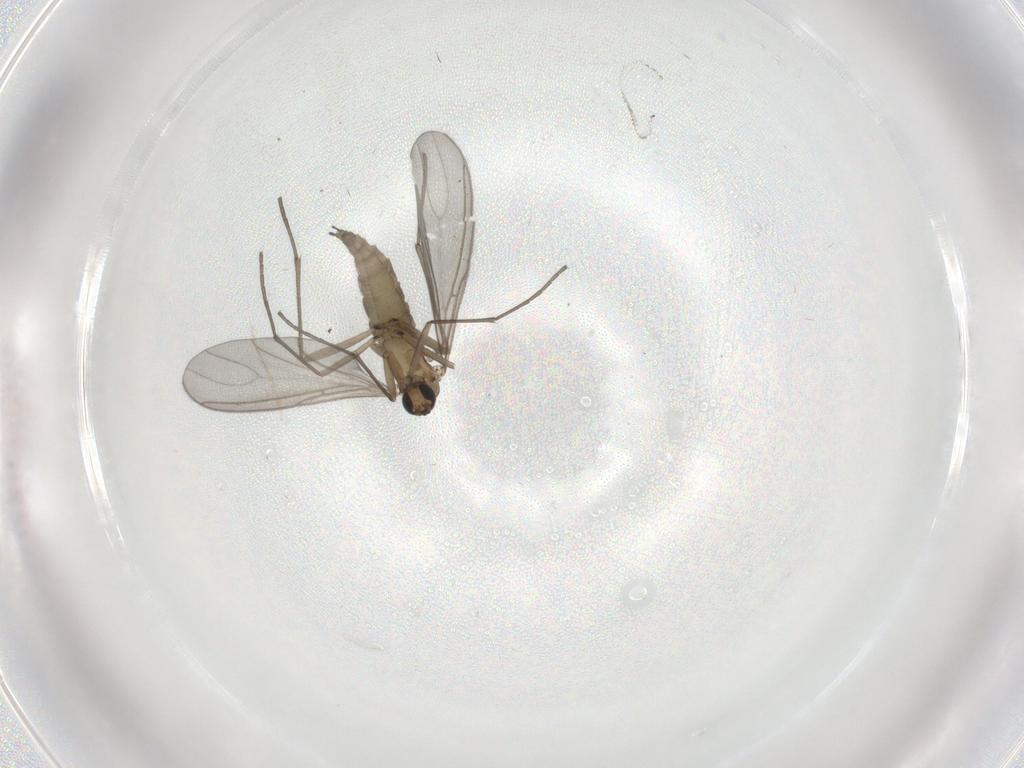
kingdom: Animalia
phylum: Arthropoda
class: Insecta
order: Diptera
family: Sciaridae
